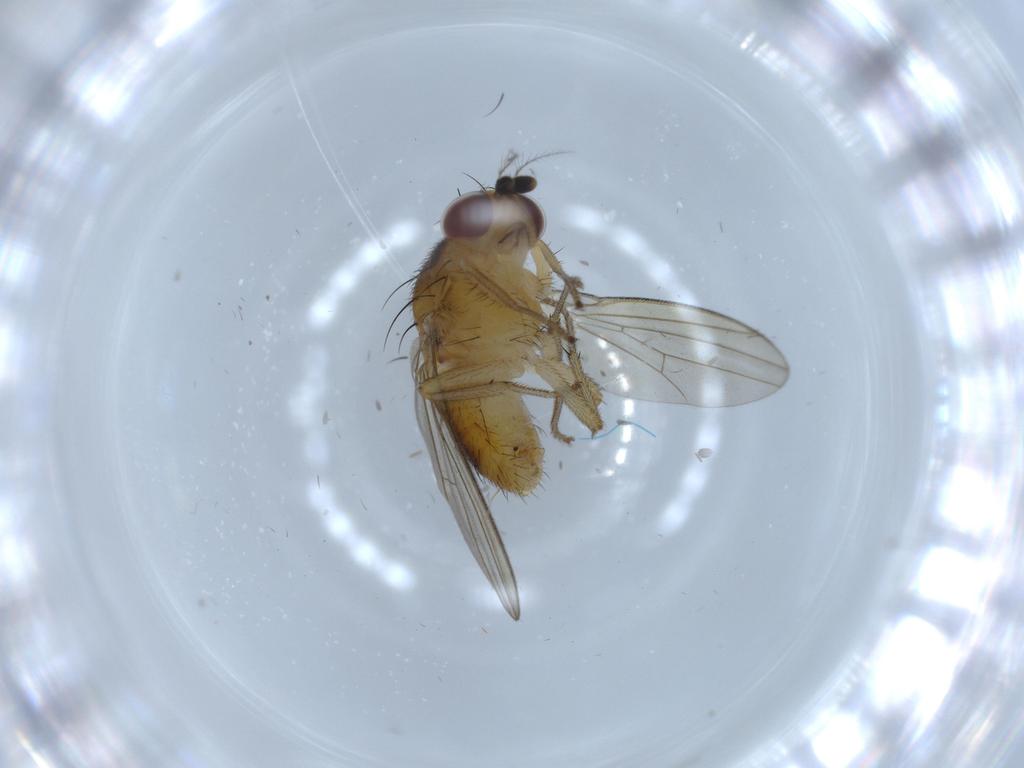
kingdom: Animalia
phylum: Arthropoda
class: Insecta
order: Diptera
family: Lauxaniidae
